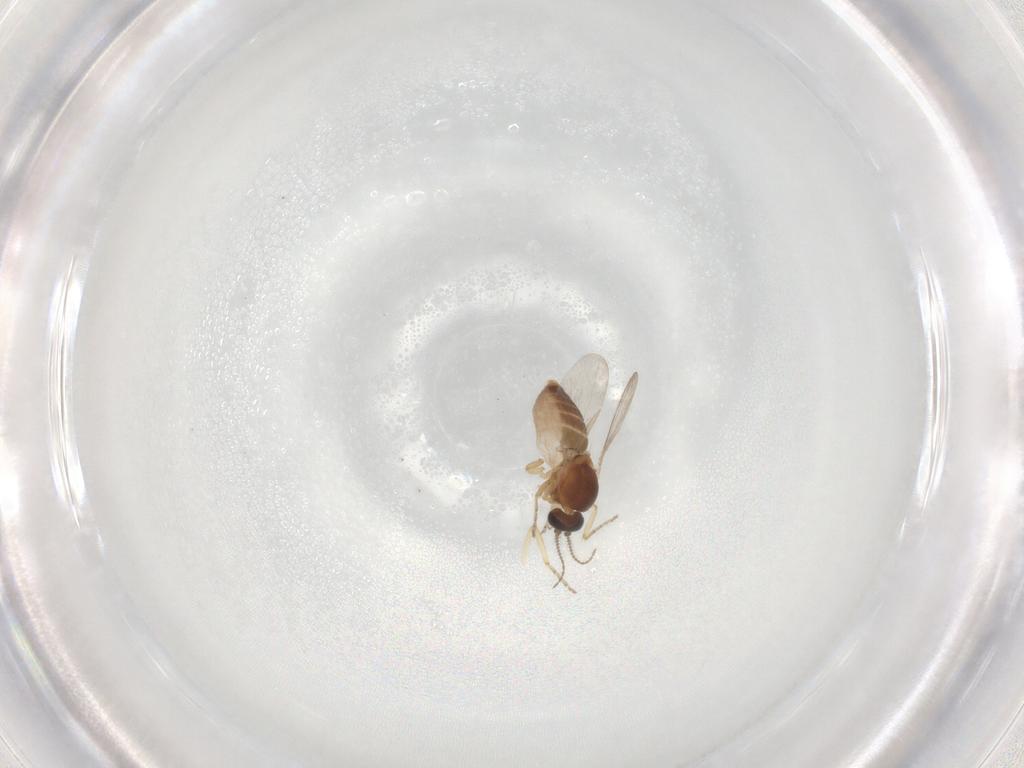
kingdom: Animalia
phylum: Arthropoda
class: Insecta
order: Diptera
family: Ceratopogonidae
